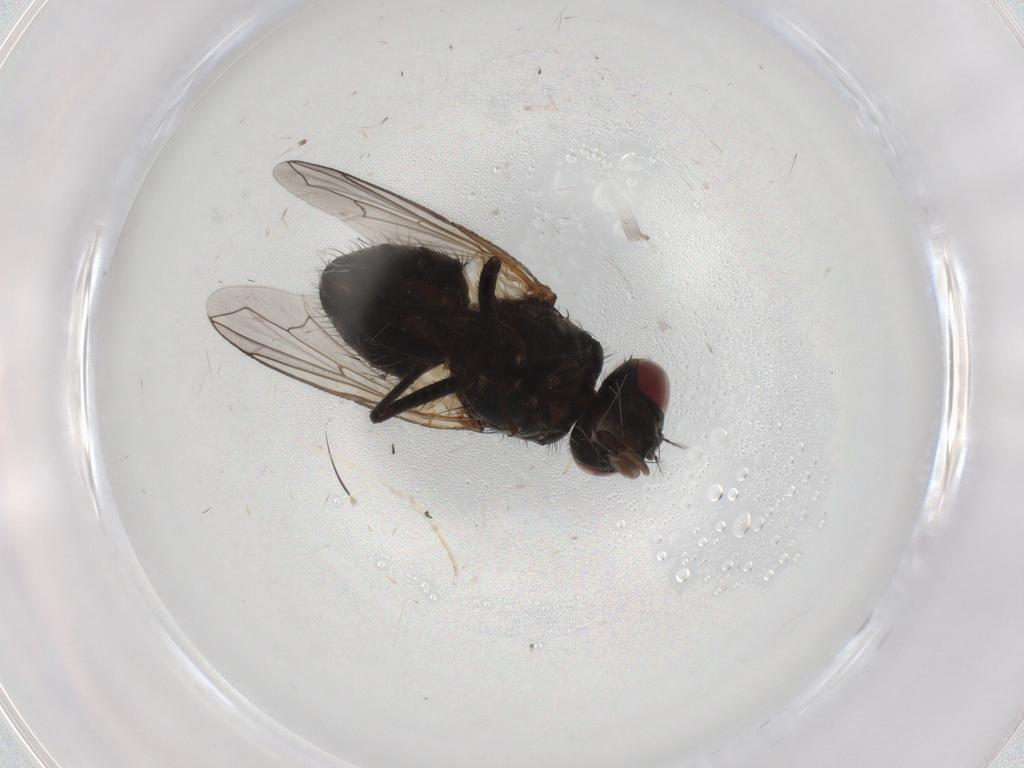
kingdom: Animalia
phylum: Arthropoda
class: Insecta
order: Diptera
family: Muscidae
